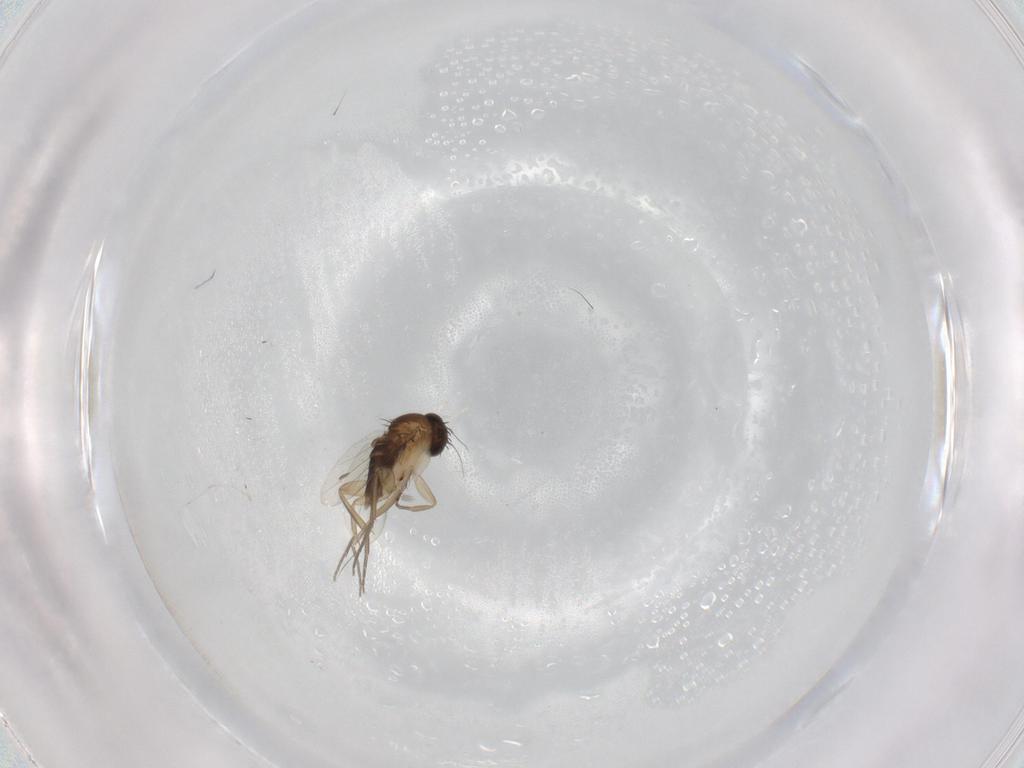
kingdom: Animalia
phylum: Arthropoda
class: Insecta
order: Diptera
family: Phoridae
